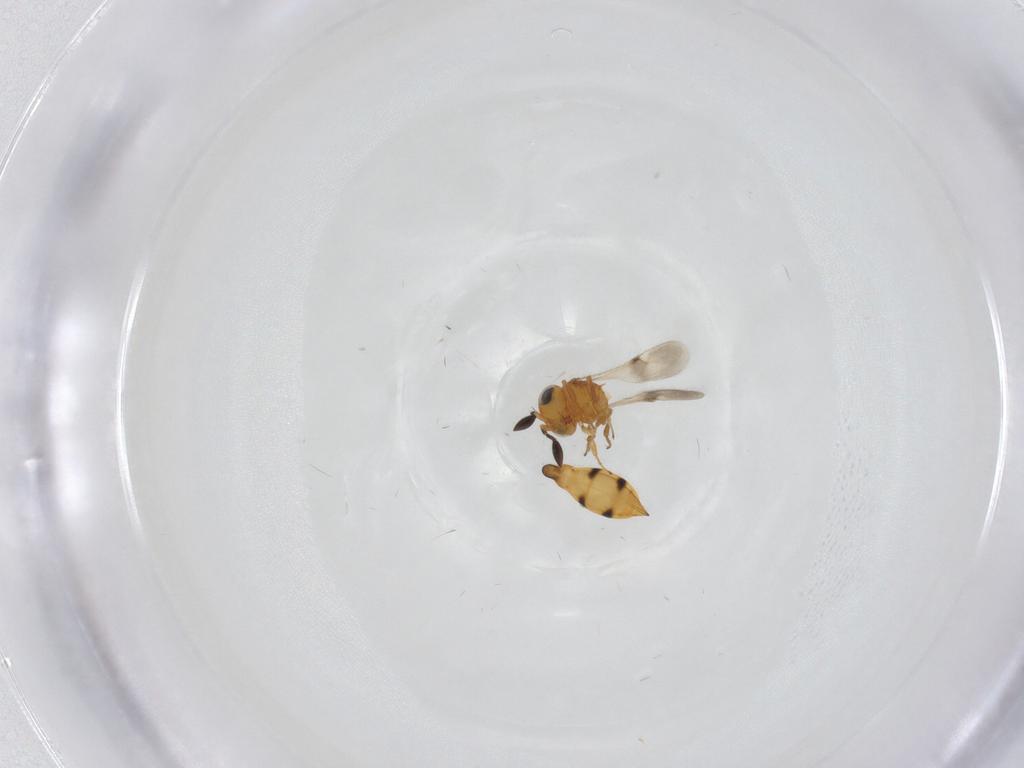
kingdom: Animalia
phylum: Arthropoda
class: Insecta
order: Hymenoptera
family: Scelionidae
